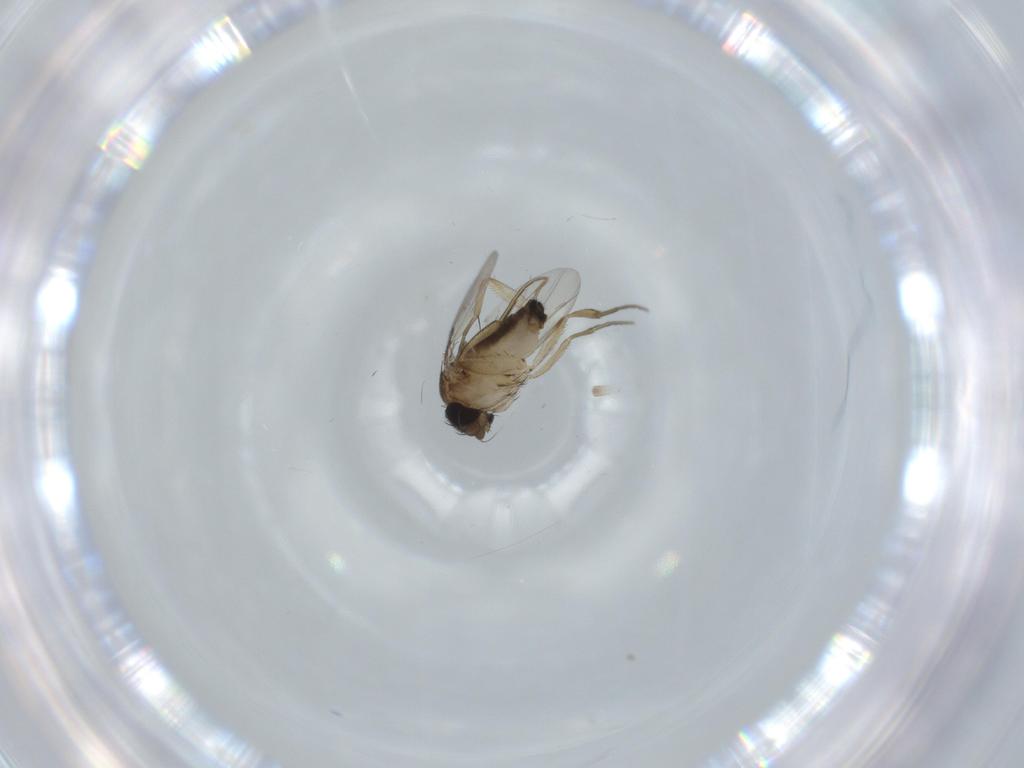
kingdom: Animalia
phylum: Arthropoda
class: Insecta
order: Diptera
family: Phoridae
